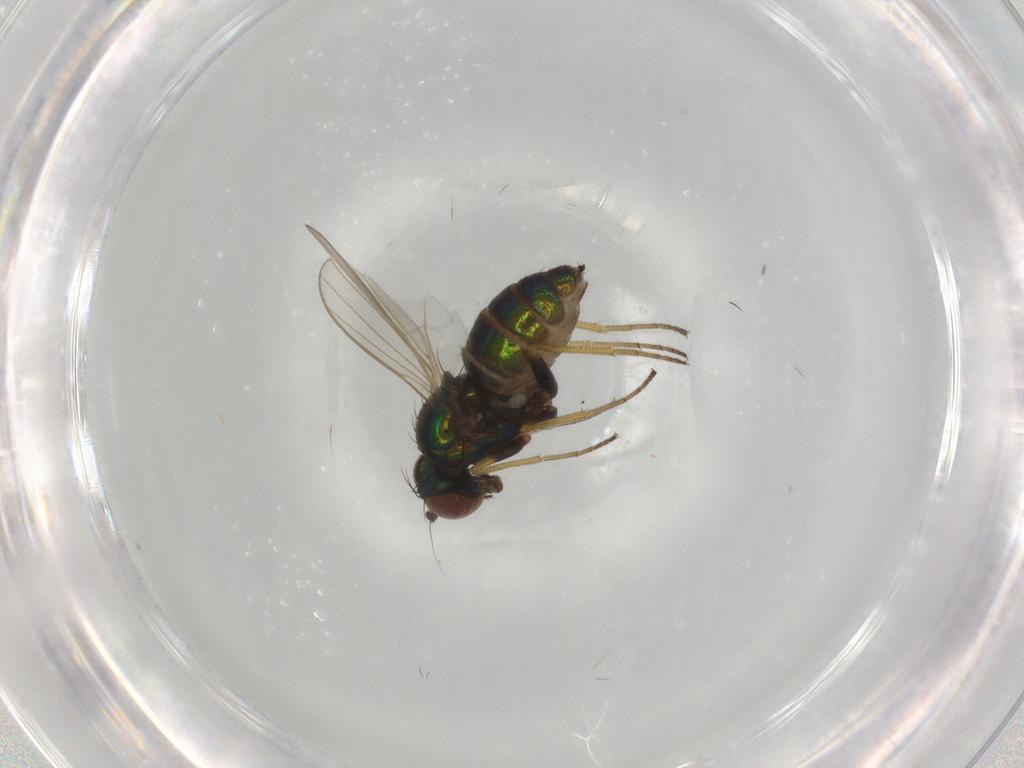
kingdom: Animalia
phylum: Arthropoda
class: Insecta
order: Diptera
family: Dolichopodidae
